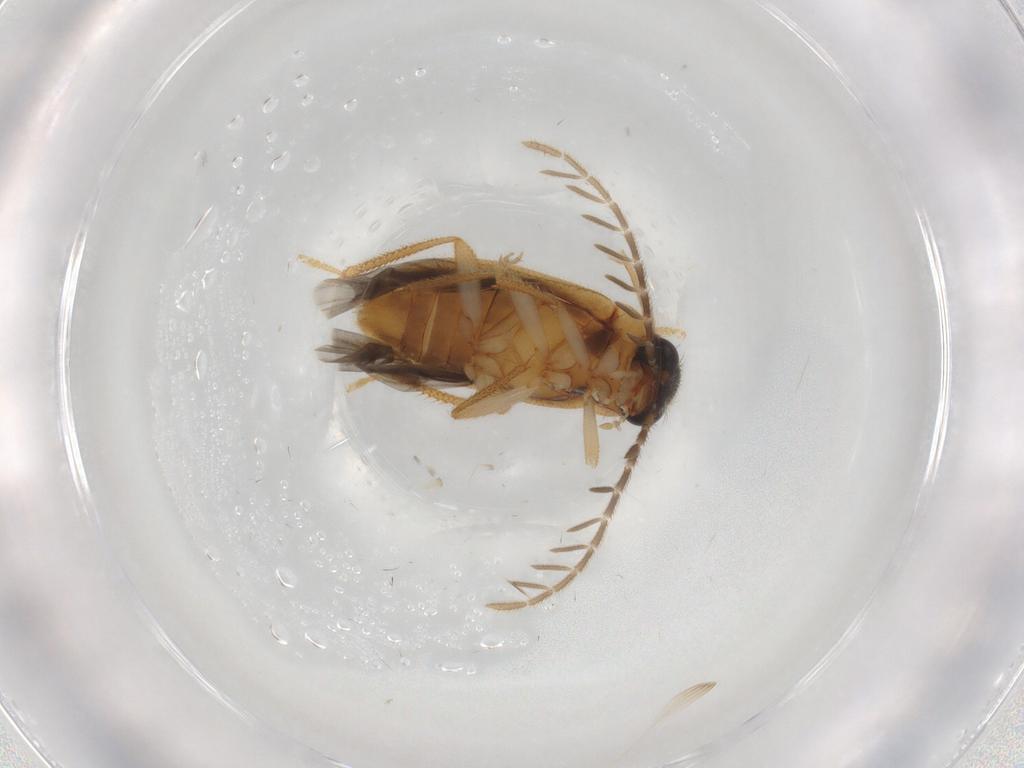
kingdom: Animalia
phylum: Arthropoda
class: Insecta
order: Coleoptera
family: Ptilodactylidae
